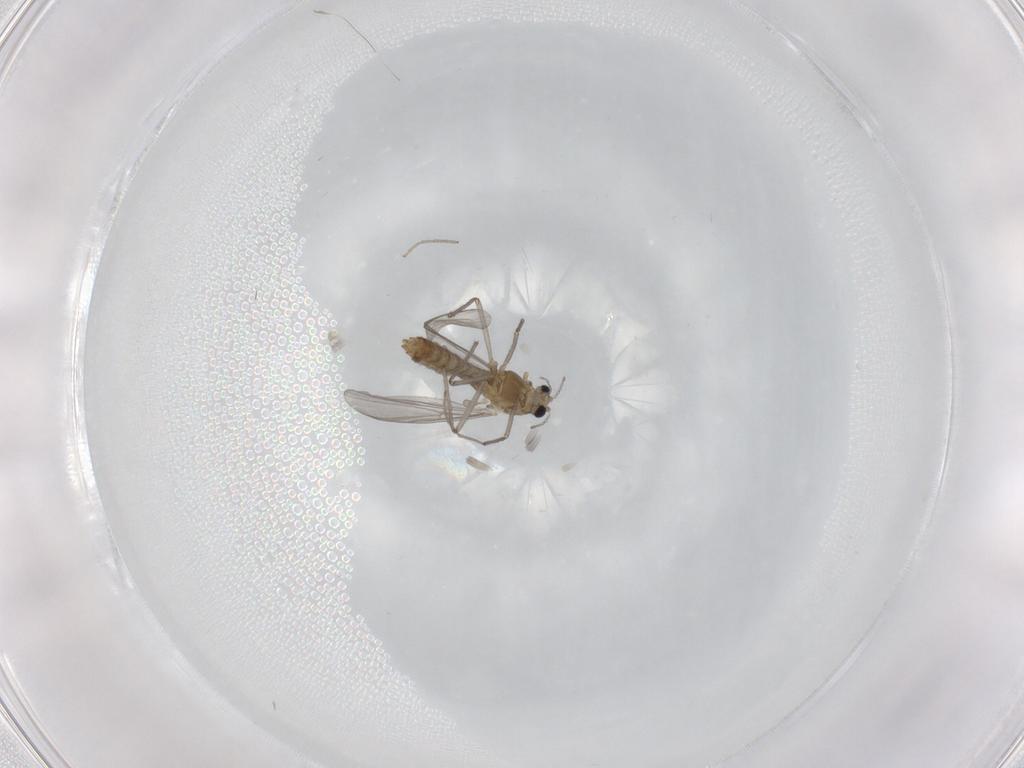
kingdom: Animalia
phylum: Arthropoda
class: Insecta
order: Diptera
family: Chironomidae
